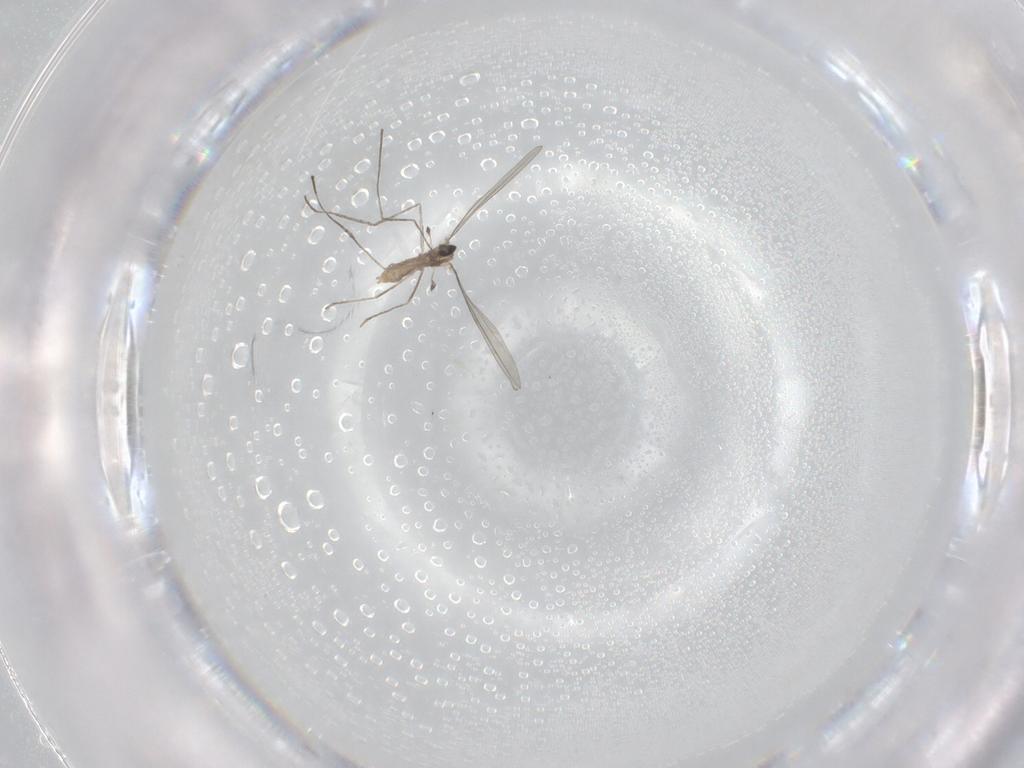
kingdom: Animalia
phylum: Arthropoda
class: Insecta
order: Diptera
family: Cecidomyiidae
